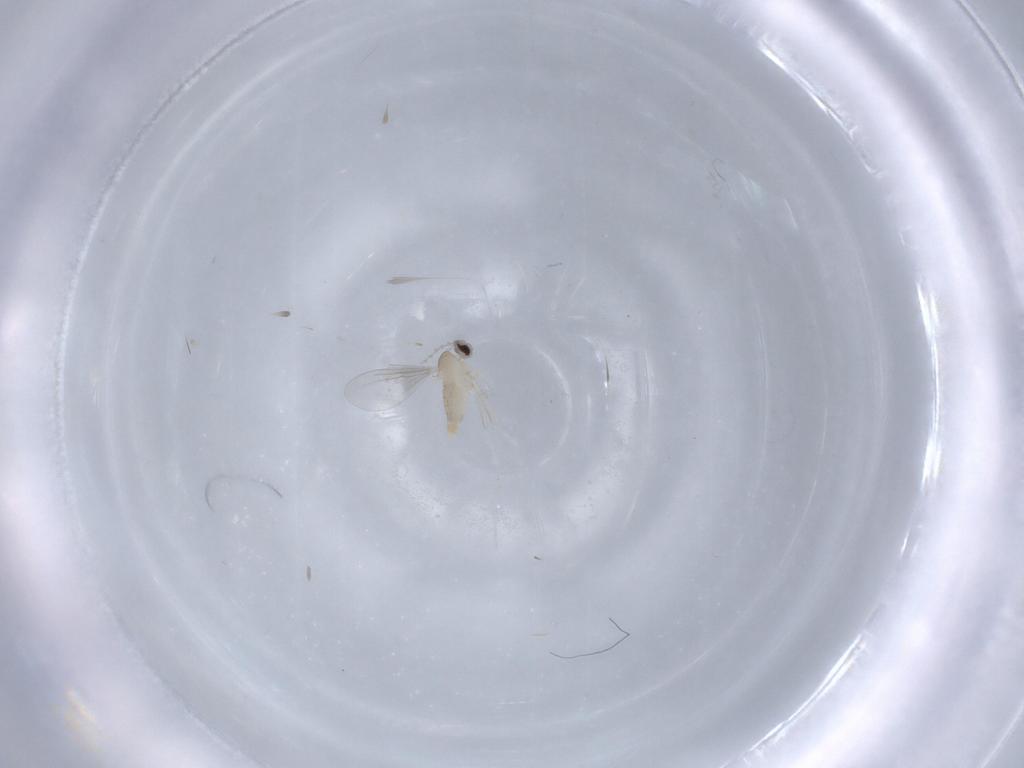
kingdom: Animalia
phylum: Arthropoda
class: Insecta
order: Diptera
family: Cecidomyiidae
